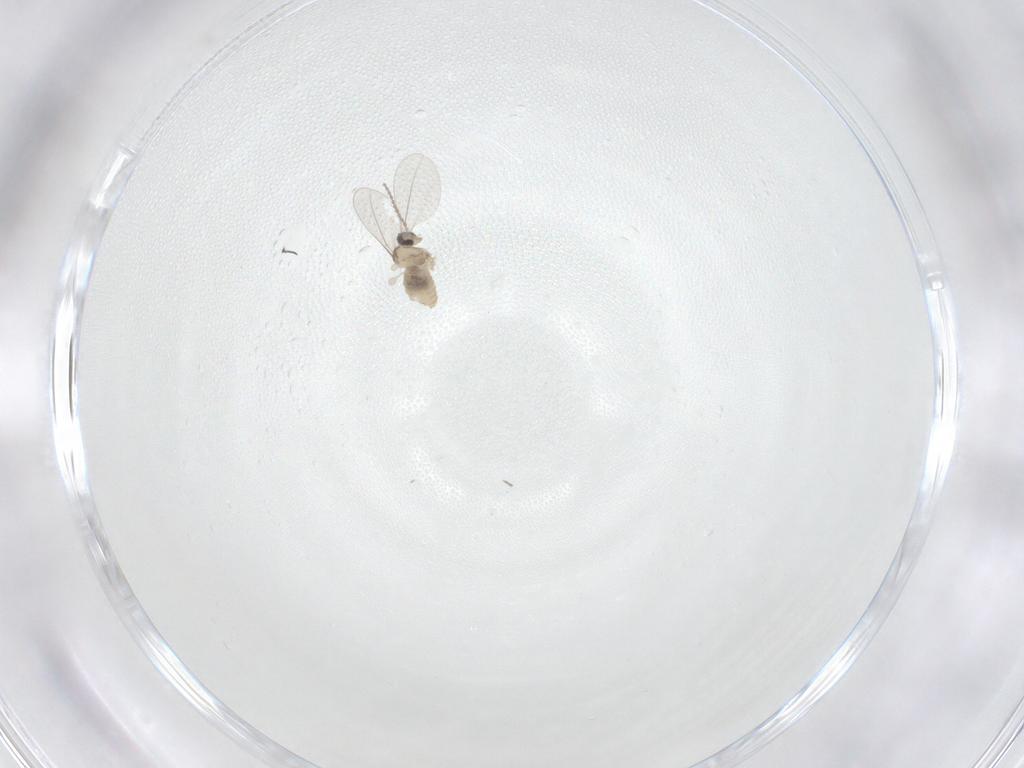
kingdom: Animalia
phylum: Arthropoda
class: Insecta
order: Diptera
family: Cecidomyiidae
